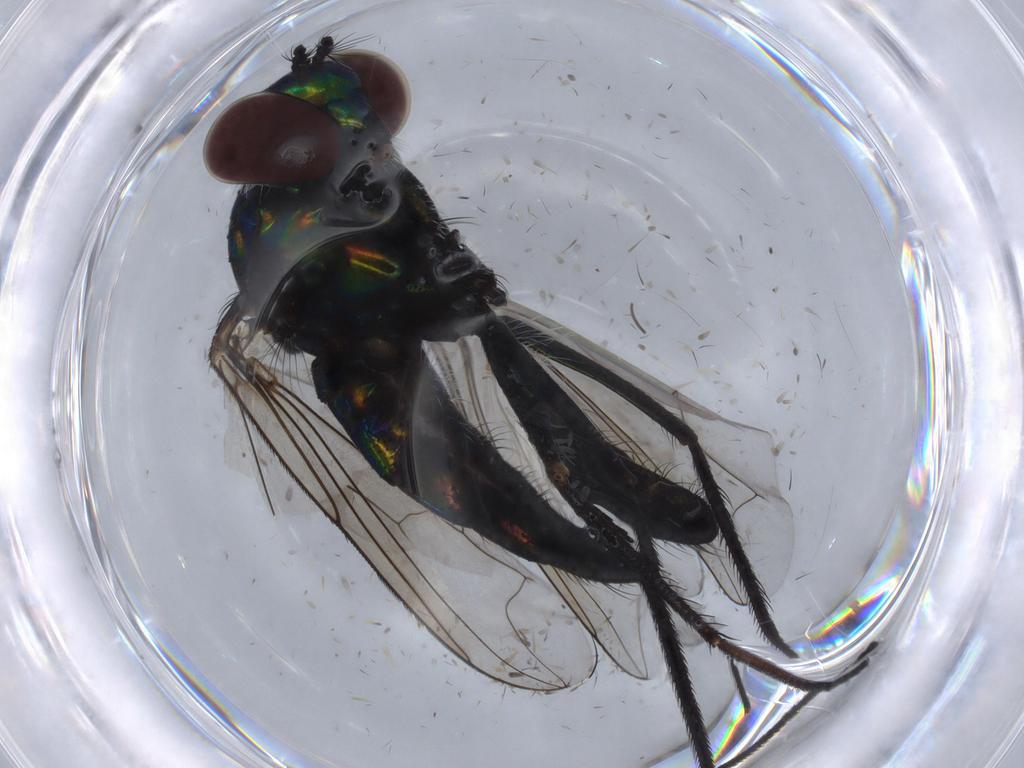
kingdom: Animalia
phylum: Arthropoda
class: Insecta
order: Diptera
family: Ceratopogonidae
